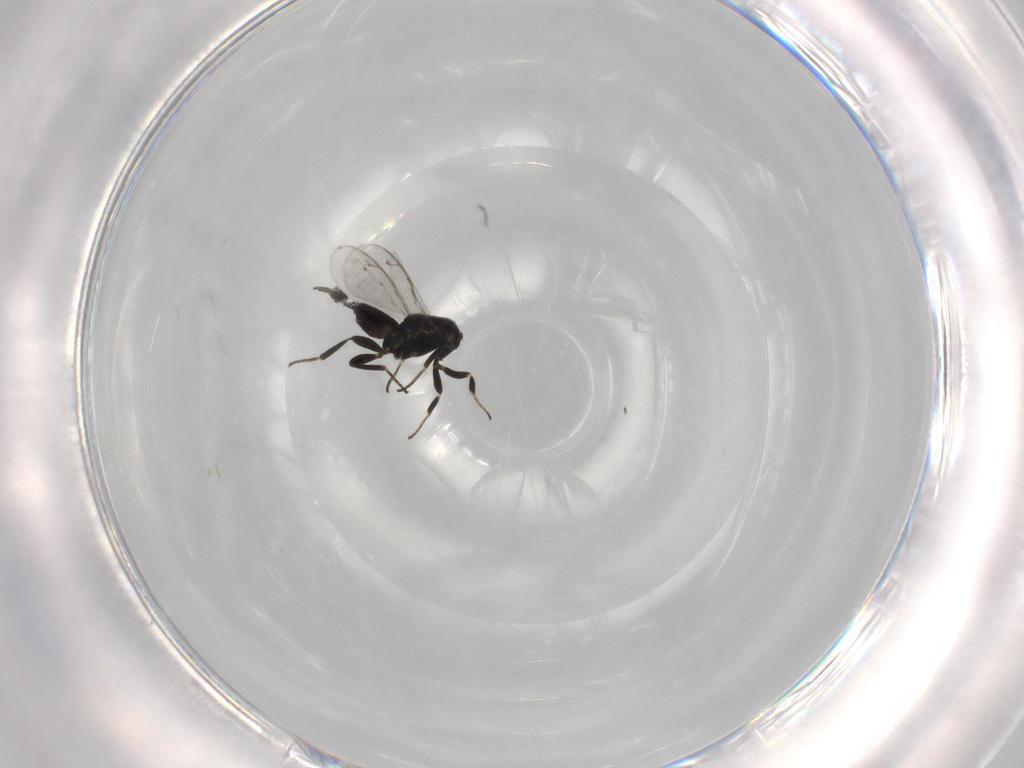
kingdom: Animalia
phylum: Arthropoda
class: Insecta
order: Hymenoptera
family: Eupelmidae
